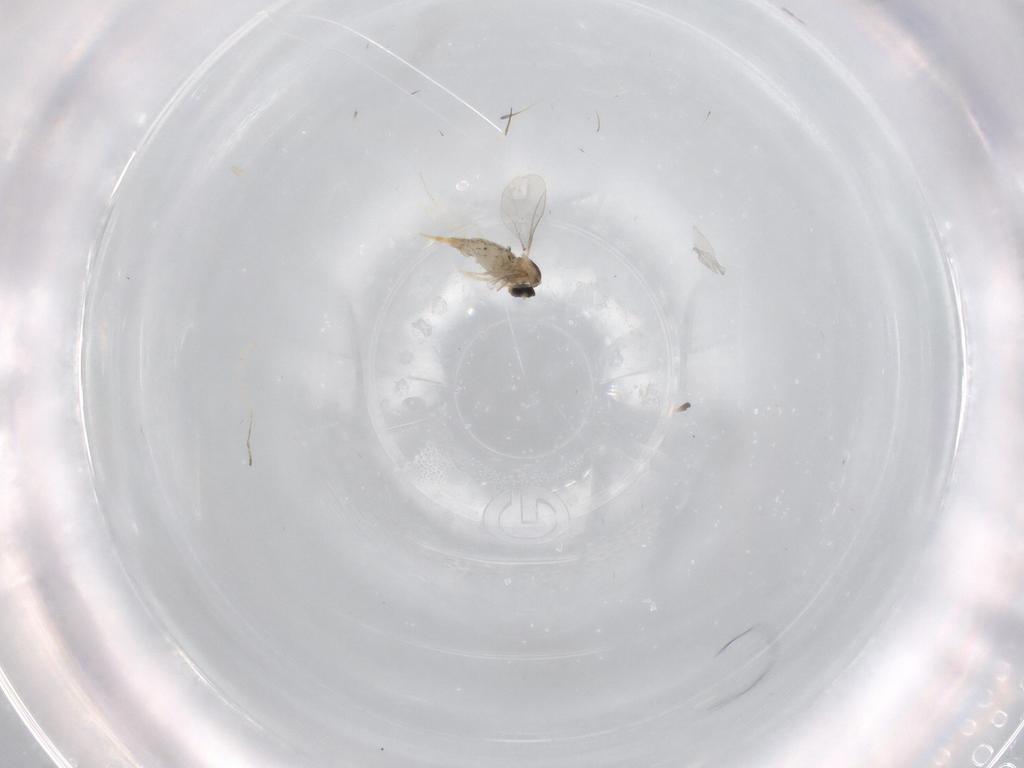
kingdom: Animalia
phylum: Arthropoda
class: Insecta
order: Diptera
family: Cecidomyiidae
